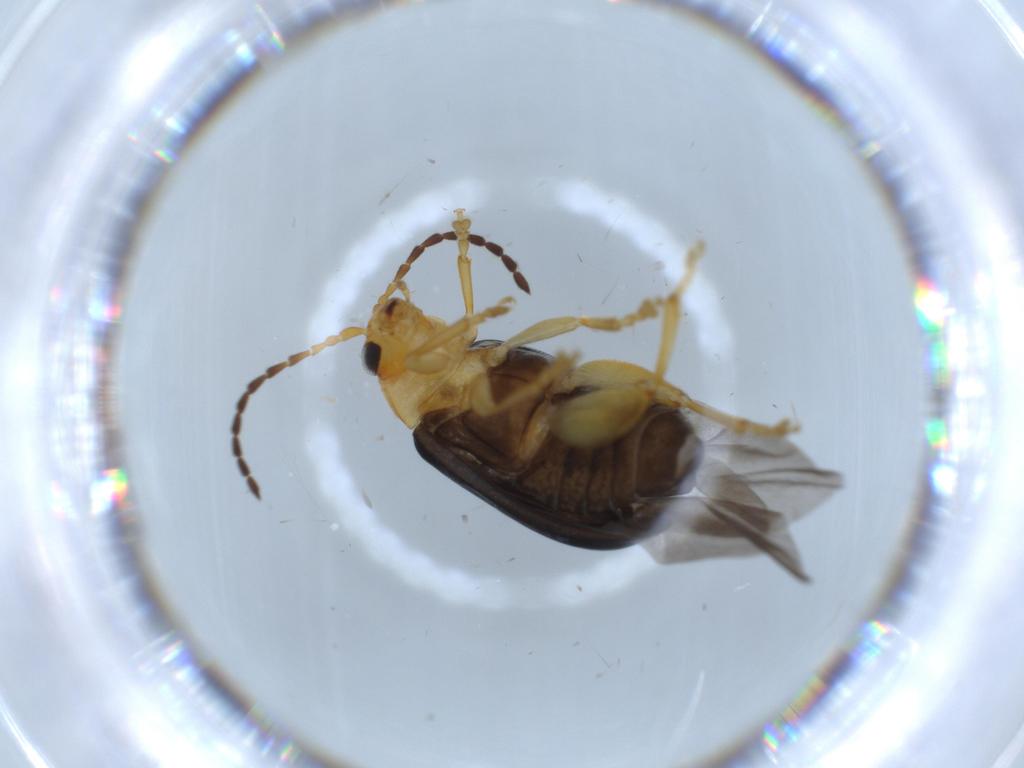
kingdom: Animalia
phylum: Arthropoda
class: Insecta
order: Coleoptera
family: Chrysomelidae
